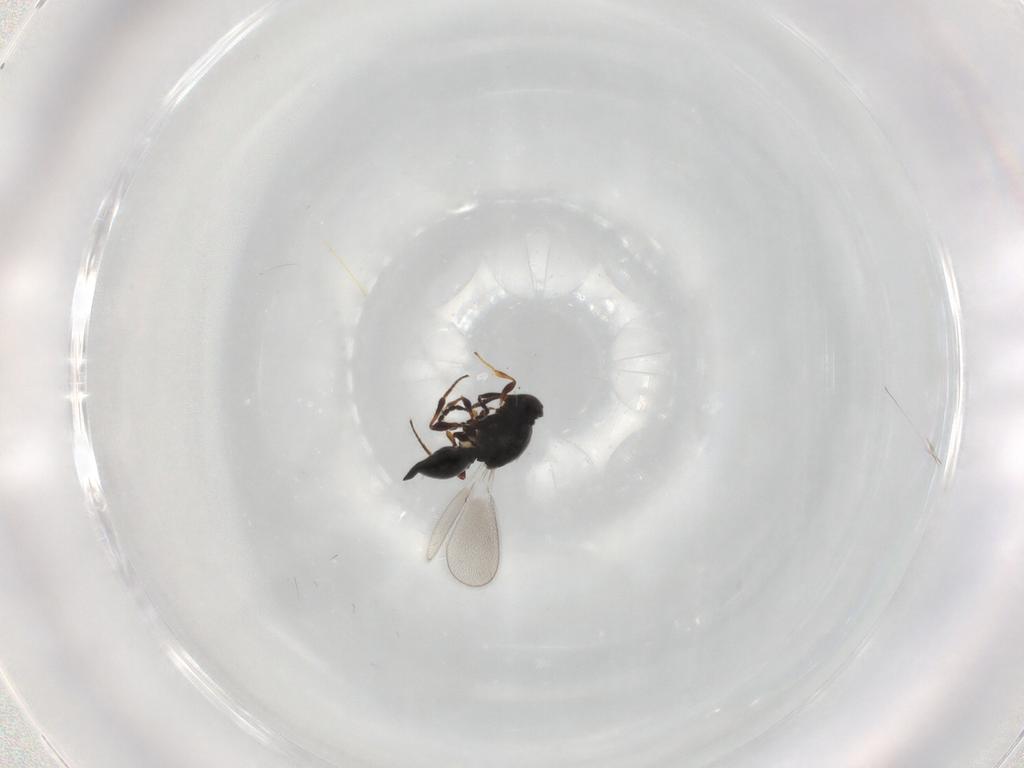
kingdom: Animalia
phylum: Arthropoda
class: Insecta
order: Hymenoptera
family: Platygastridae
